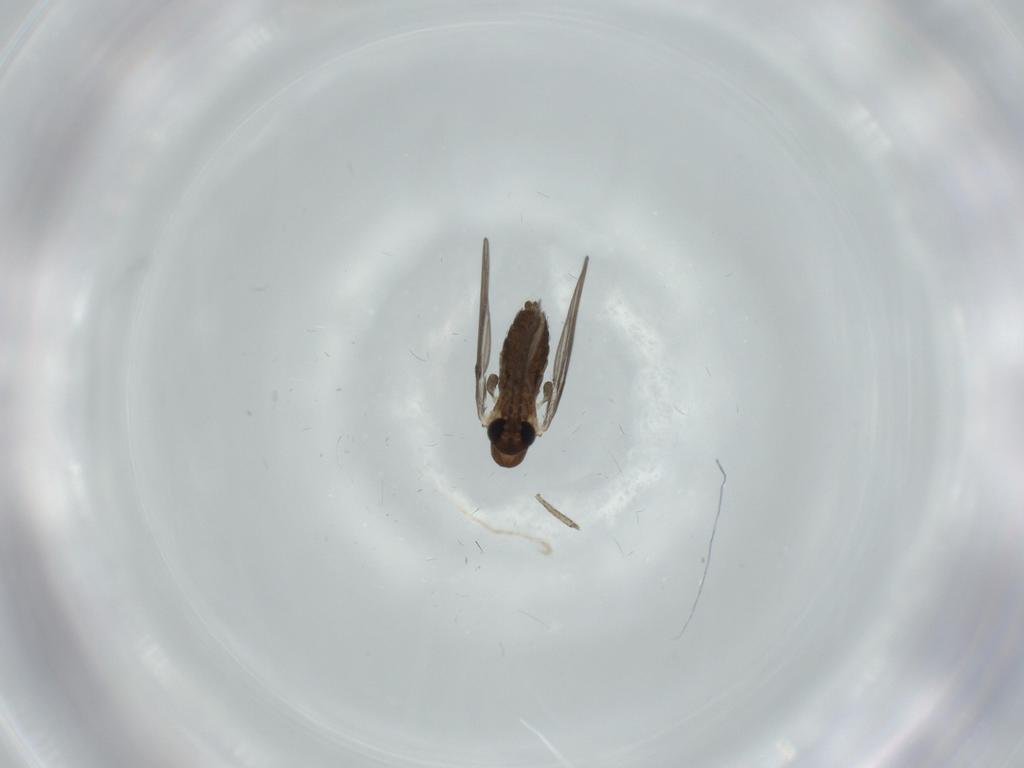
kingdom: Animalia
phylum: Arthropoda
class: Insecta
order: Diptera
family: Psychodidae
